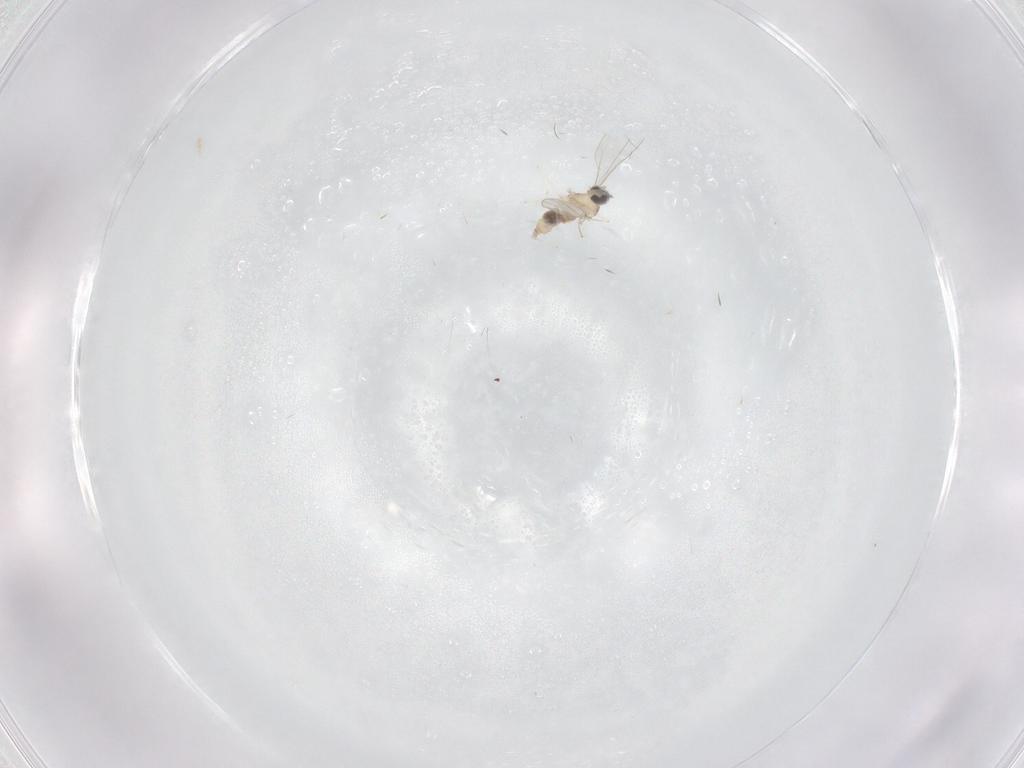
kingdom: Animalia
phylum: Arthropoda
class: Insecta
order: Diptera
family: Cecidomyiidae
